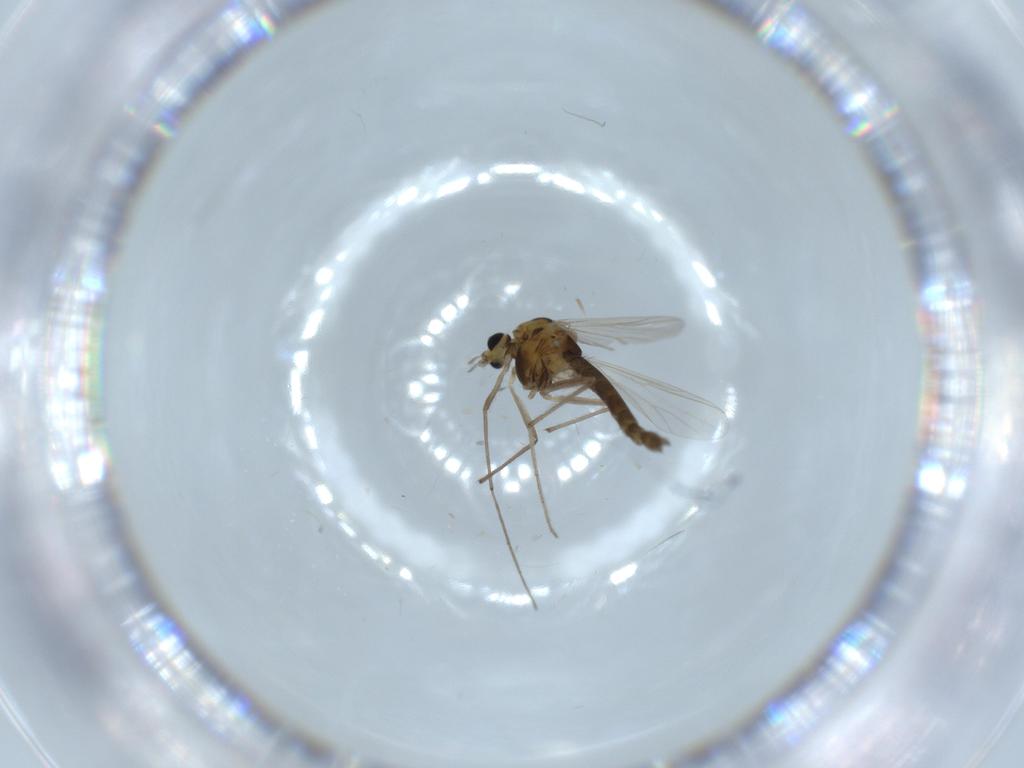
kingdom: Animalia
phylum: Arthropoda
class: Insecta
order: Diptera
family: Chironomidae
